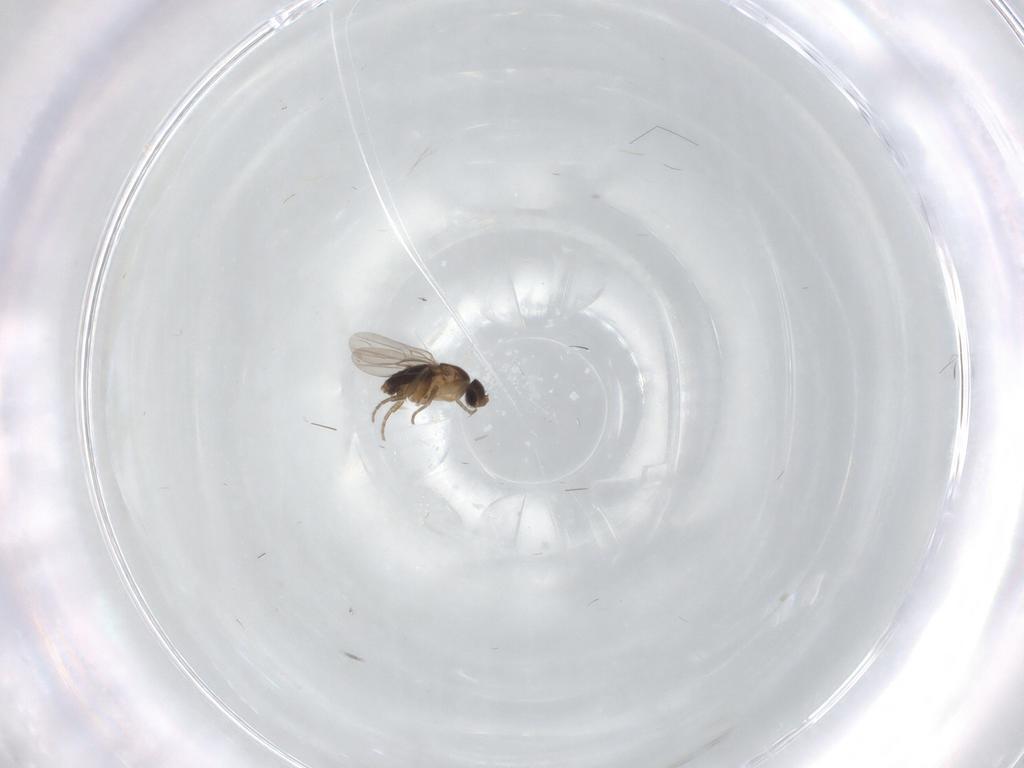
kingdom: Animalia
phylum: Arthropoda
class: Insecta
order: Diptera
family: Phoridae
